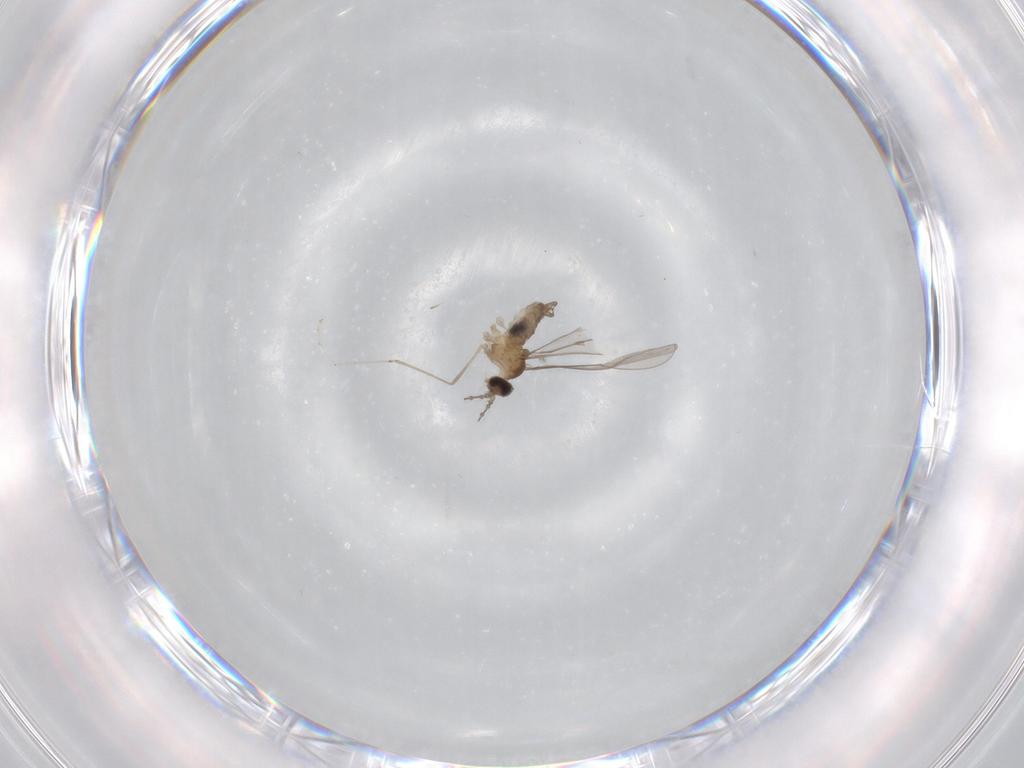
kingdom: Animalia
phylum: Arthropoda
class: Insecta
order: Diptera
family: Cecidomyiidae
